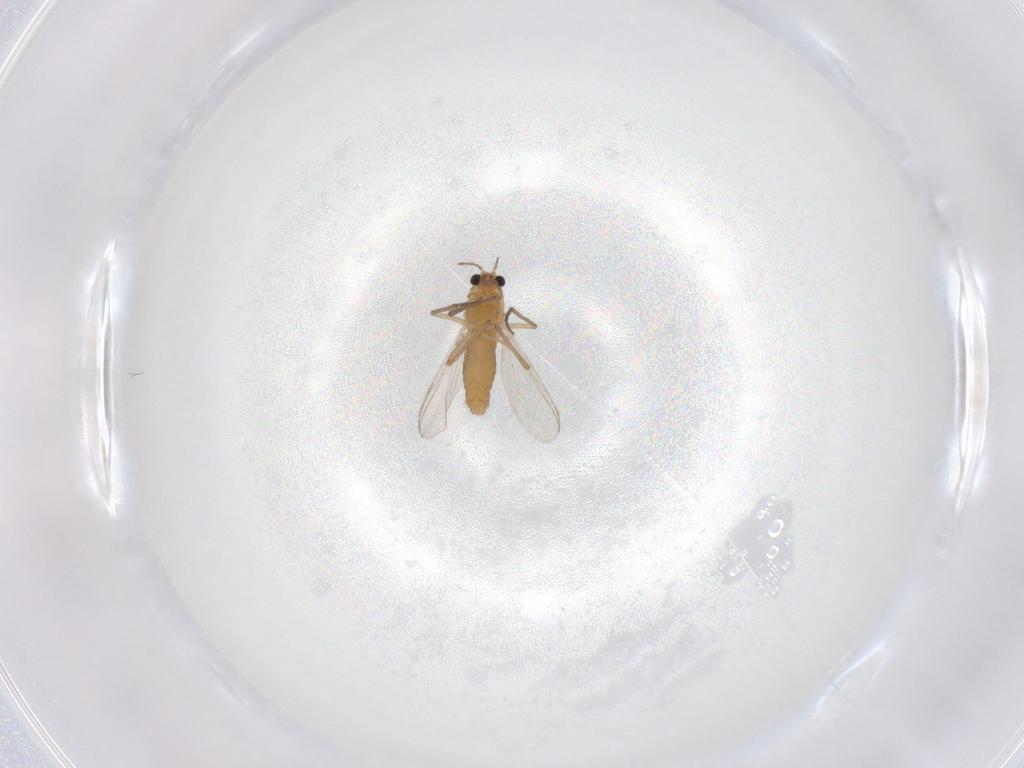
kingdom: Animalia
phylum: Arthropoda
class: Insecta
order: Diptera
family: Chironomidae
